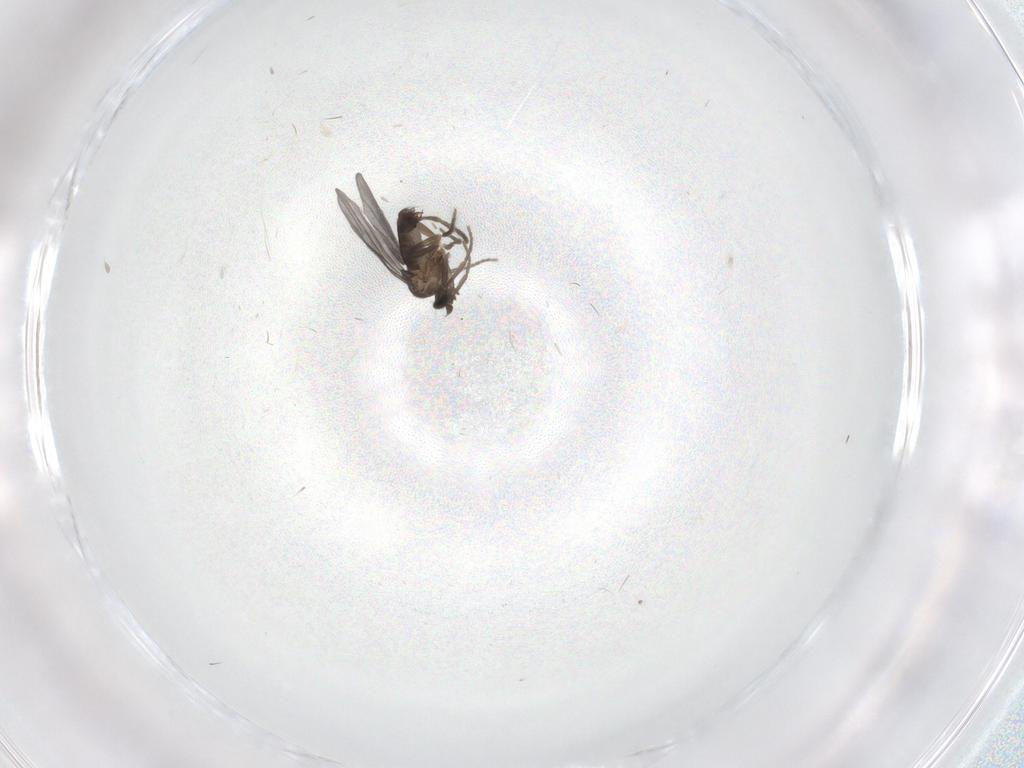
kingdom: Animalia
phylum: Arthropoda
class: Insecta
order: Diptera
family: Phoridae
